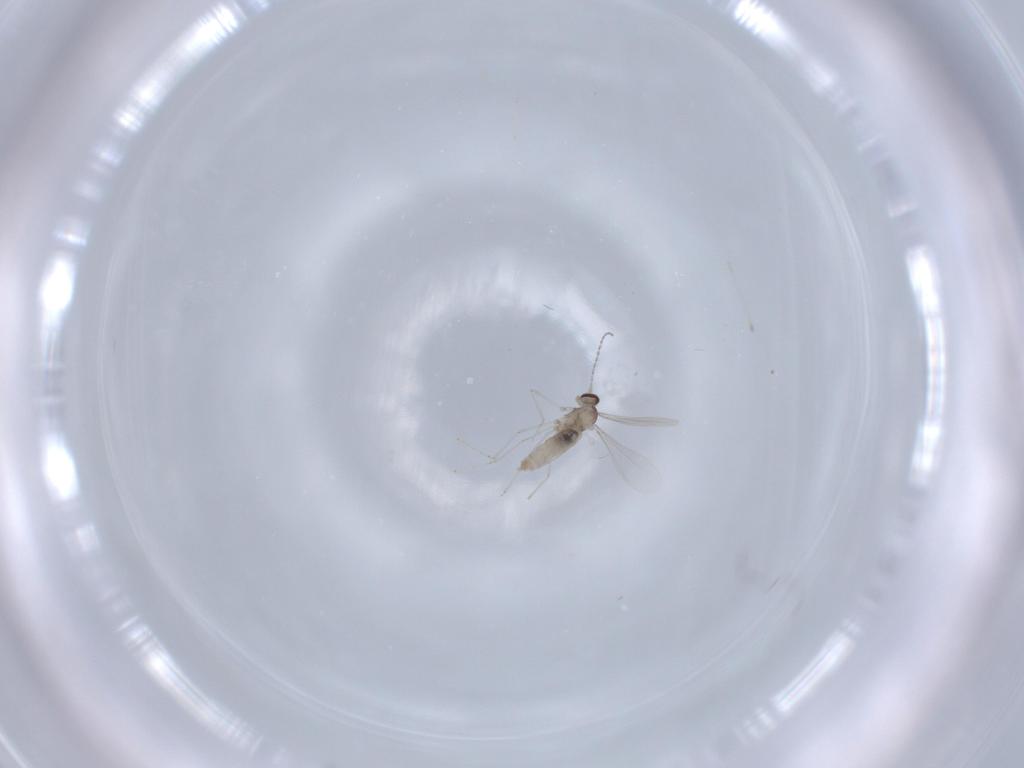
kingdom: Animalia
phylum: Arthropoda
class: Insecta
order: Diptera
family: Cecidomyiidae
